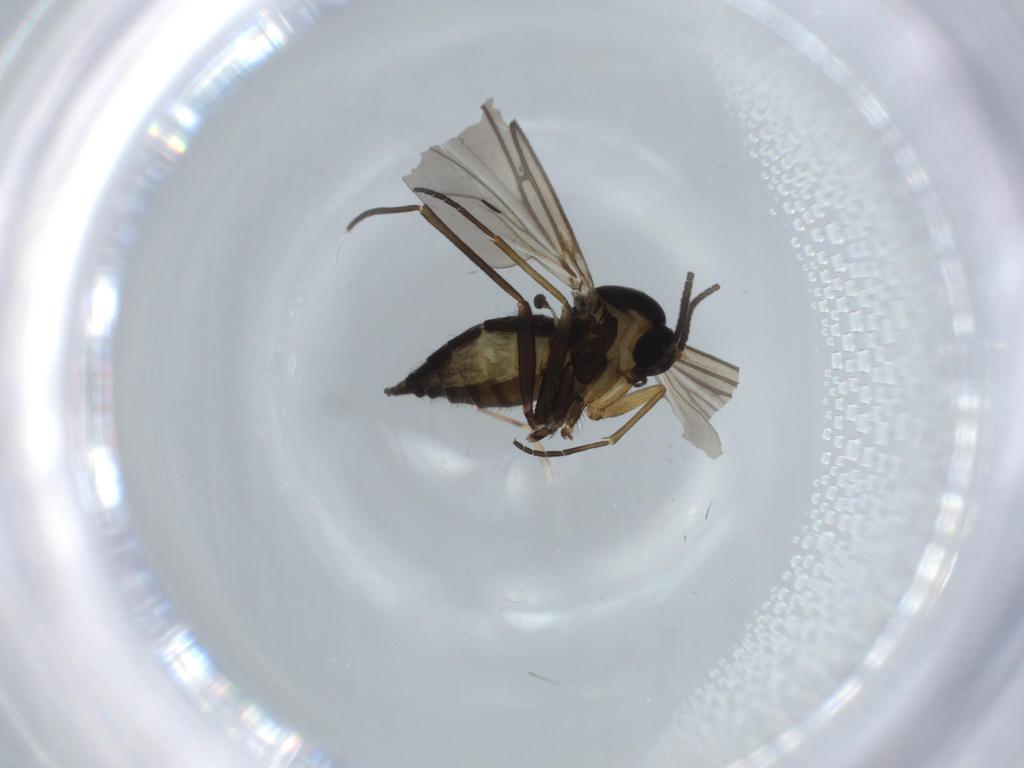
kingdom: Animalia
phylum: Arthropoda
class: Insecta
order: Diptera
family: Sciaridae
